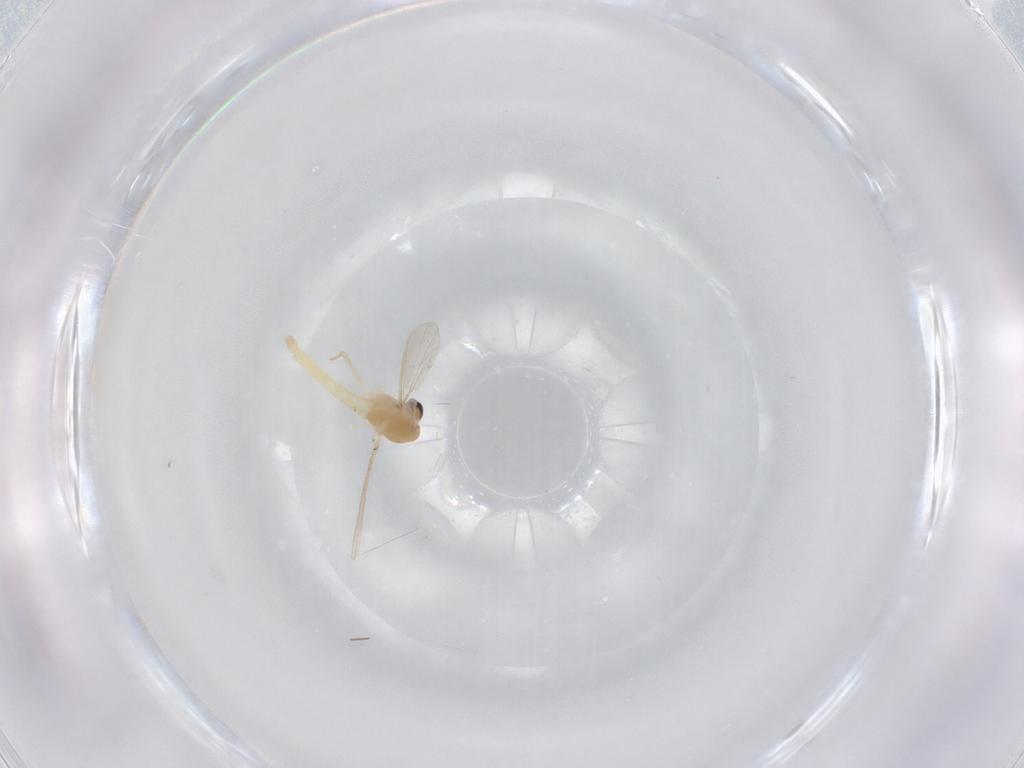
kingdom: Animalia
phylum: Arthropoda
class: Insecta
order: Diptera
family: Chironomidae
